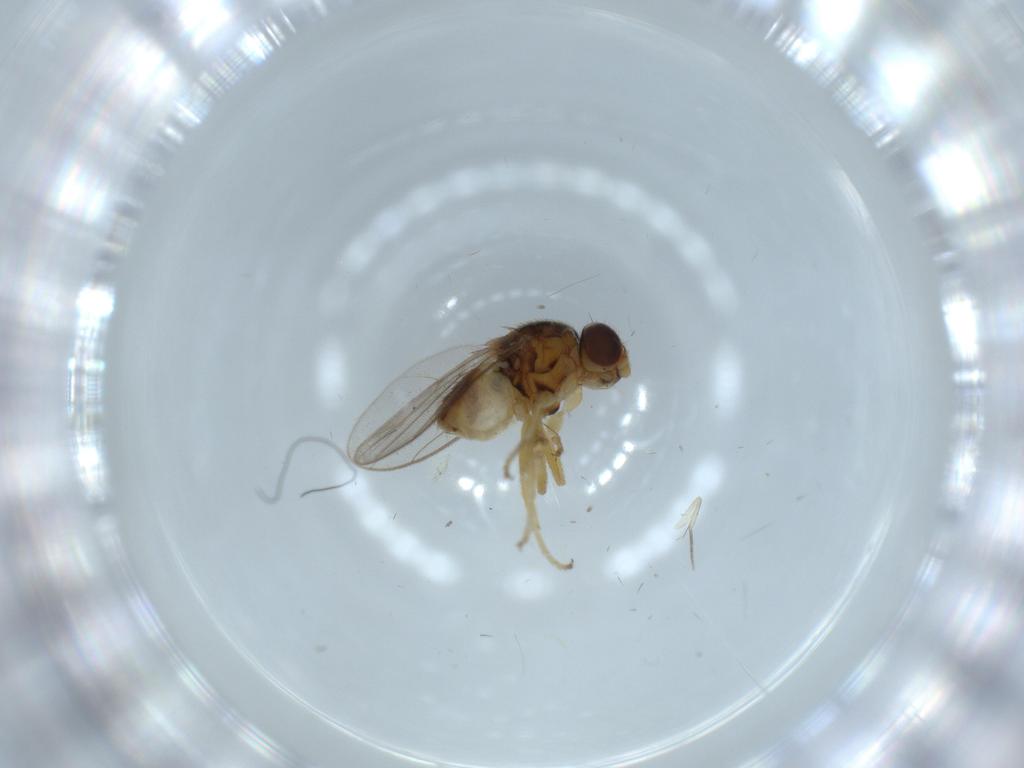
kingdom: Animalia
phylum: Arthropoda
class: Insecta
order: Diptera
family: Chloropidae
